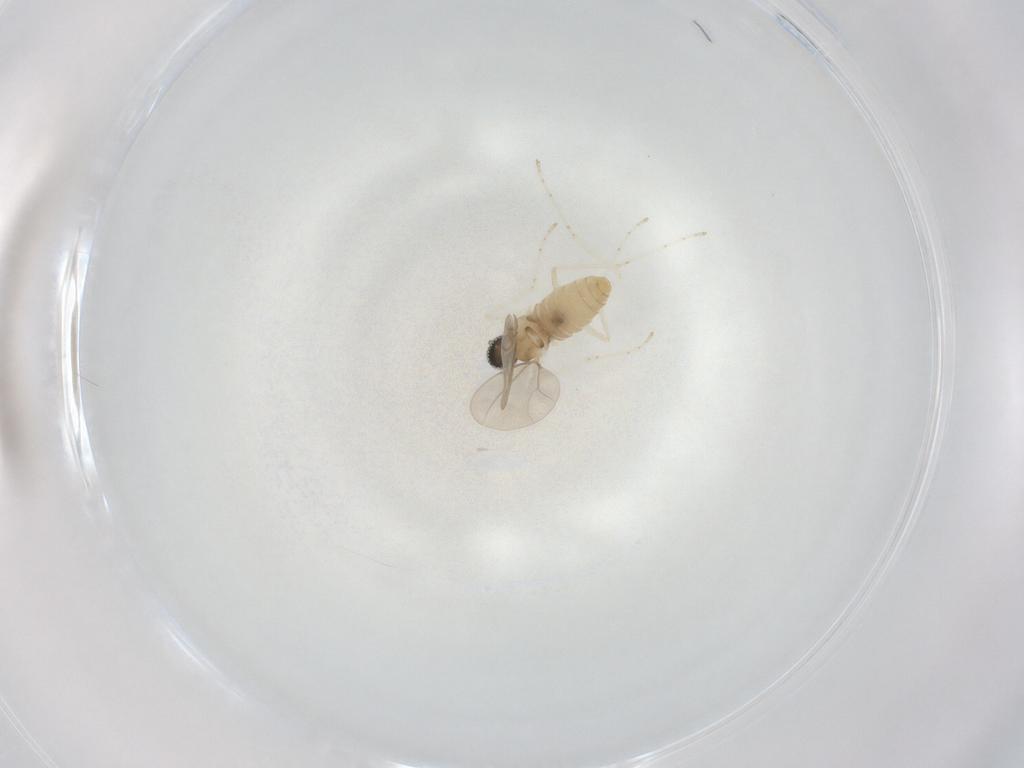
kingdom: Animalia
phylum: Arthropoda
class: Insecta
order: Diptera
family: Cecidomyiidae
